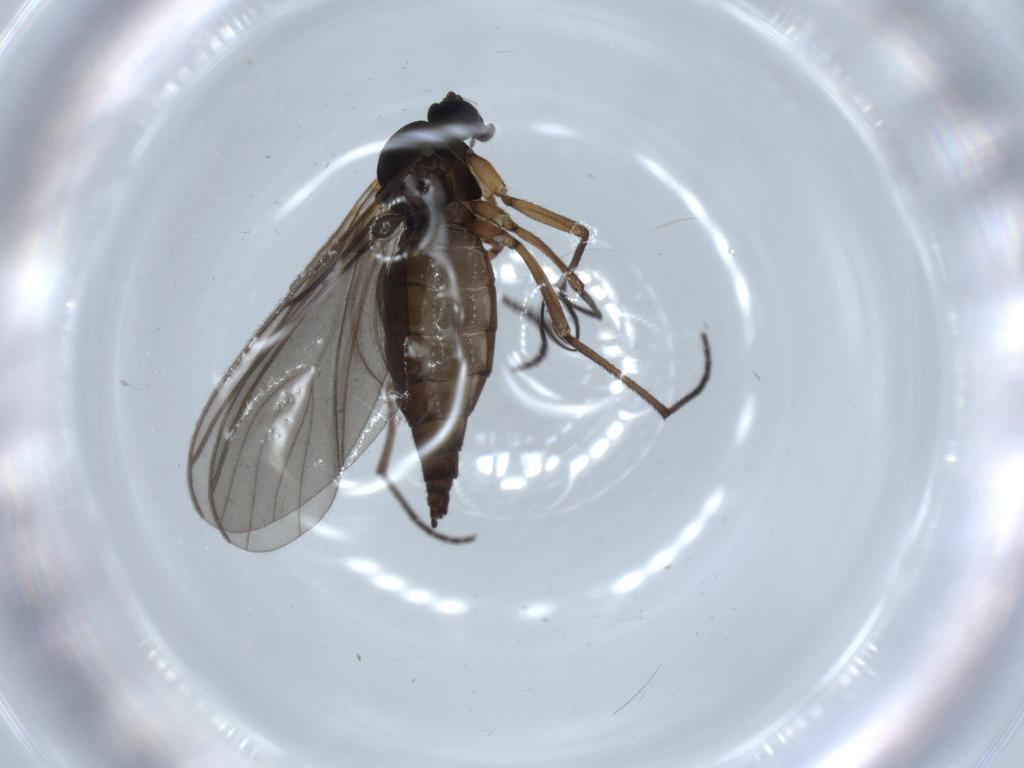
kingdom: Animalia
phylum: Arthropoda
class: Insecta
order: Diptera
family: Sciaridae
